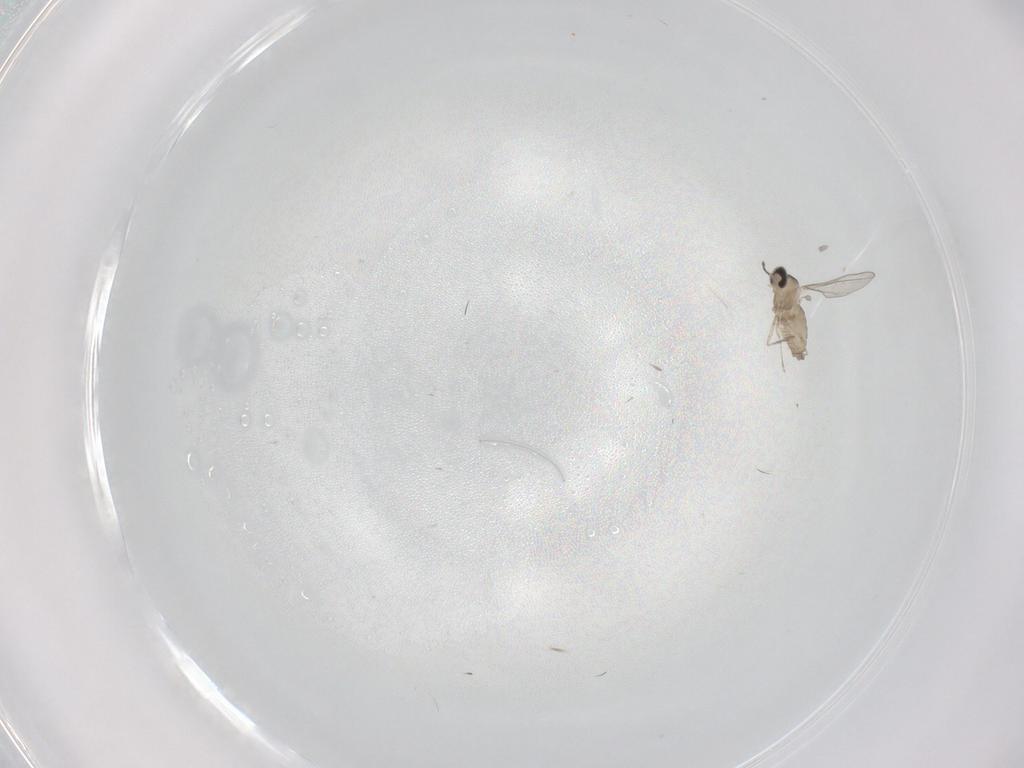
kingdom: Animalia
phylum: Arthropoda
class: Insecta
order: Diptera
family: Cecidomyiidae
